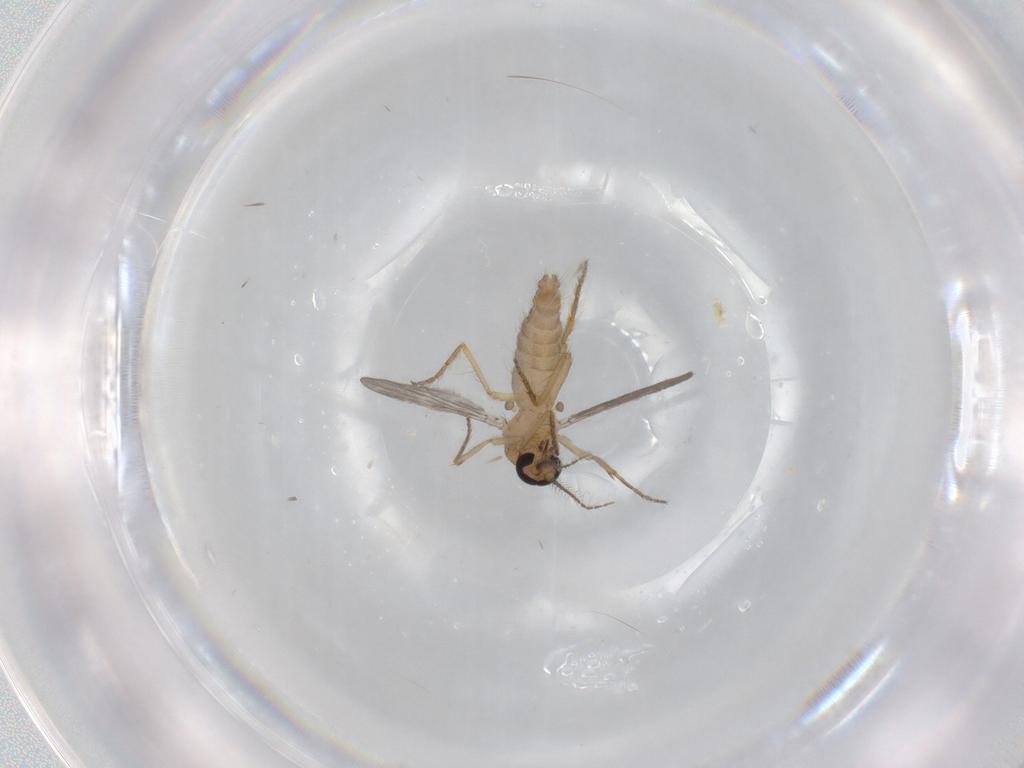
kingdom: Animalia
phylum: Arthropoda
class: Insecta
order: Diptera
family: Ceratopogonidae
